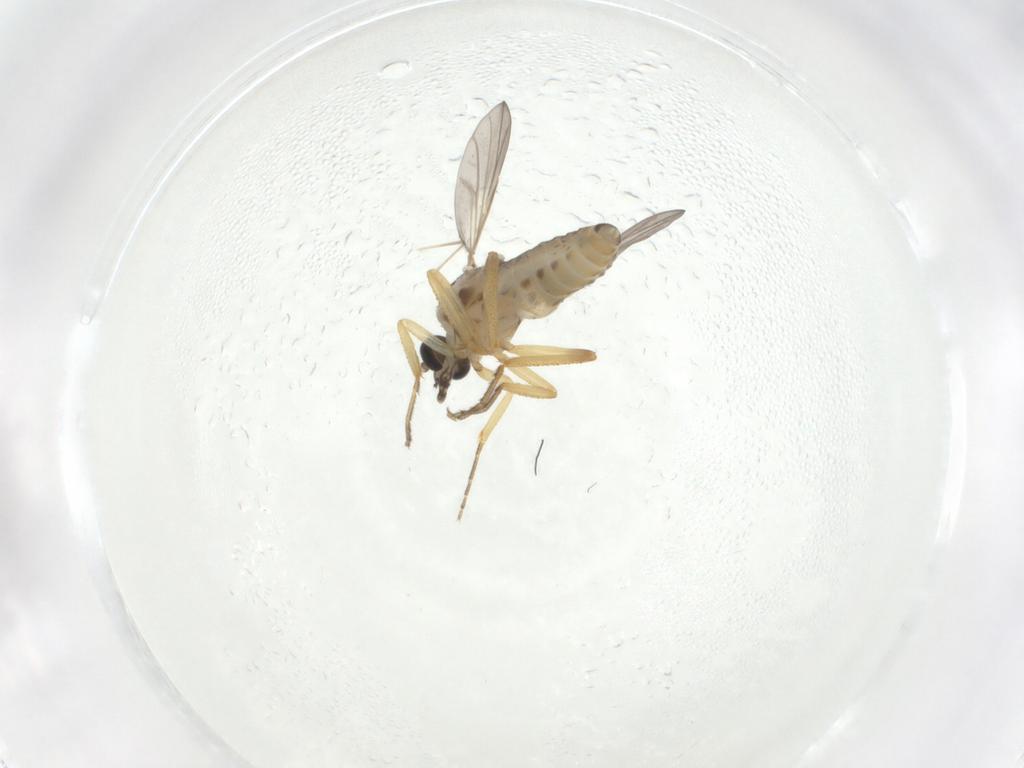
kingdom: Animalia
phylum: Arthropoda
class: Insecta
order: Diptera
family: Ceratopogonidae
